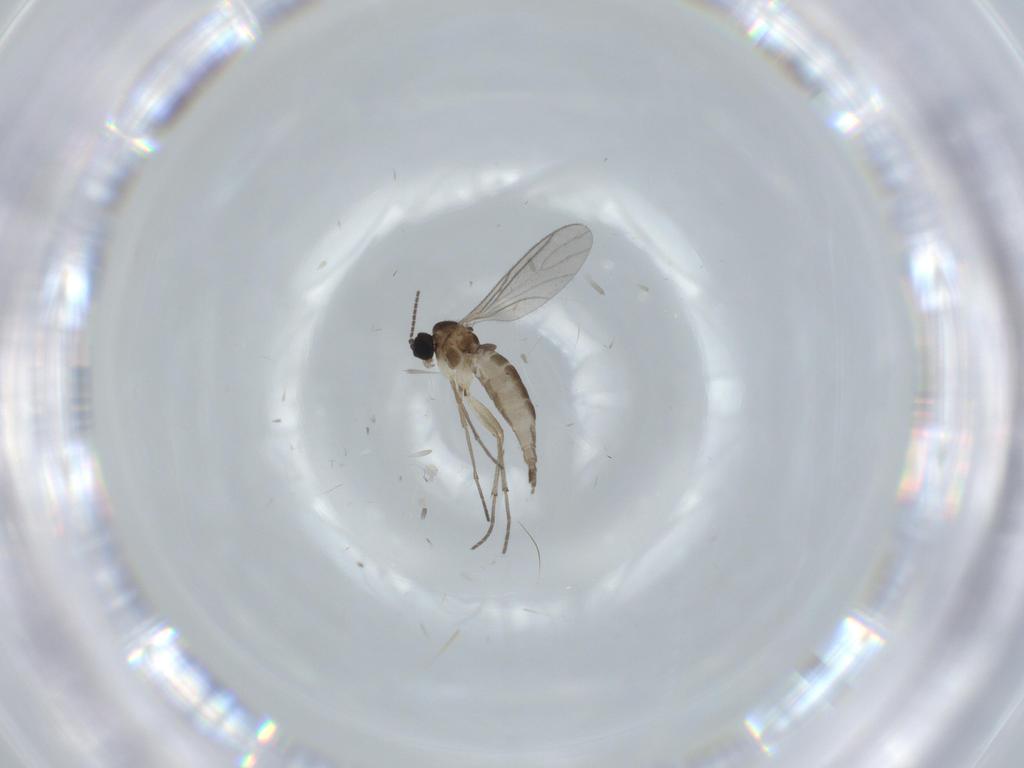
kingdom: Animalia
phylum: Arthropoda
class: Insecta
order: Diptera
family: Sciaridae
